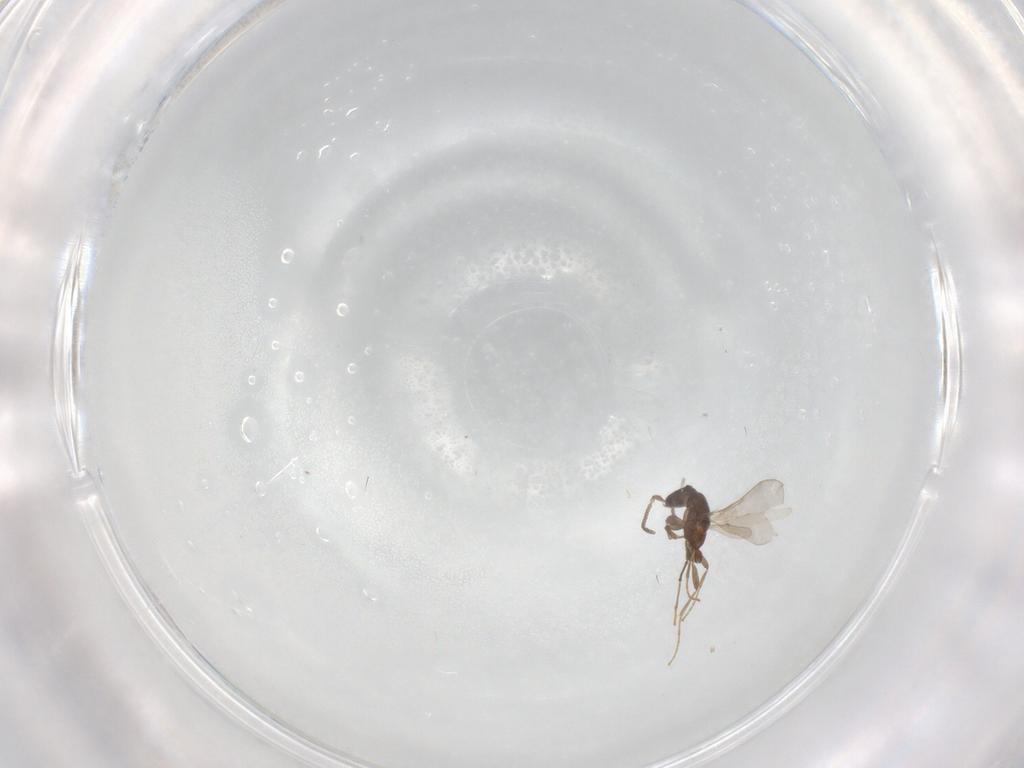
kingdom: Animalia
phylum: Arthropoda
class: Insecta
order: Hymenoptera
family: Formicidae
